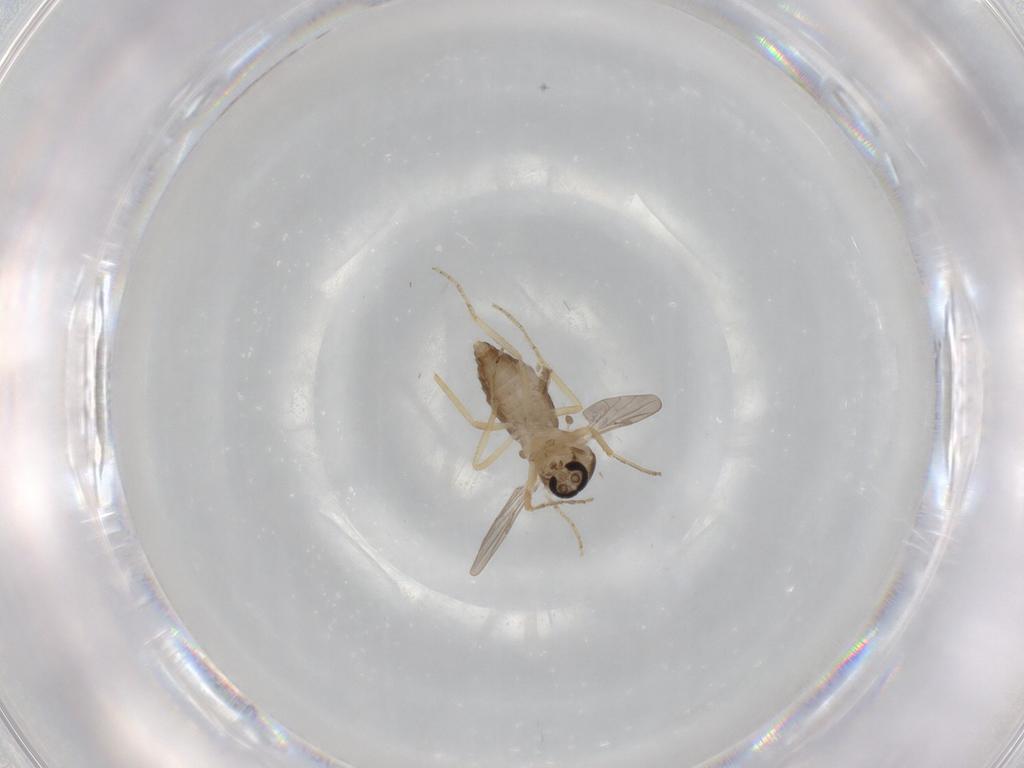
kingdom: Animalia
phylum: Arthropoda
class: Insecta
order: Diptera
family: Ceratopogonidae
